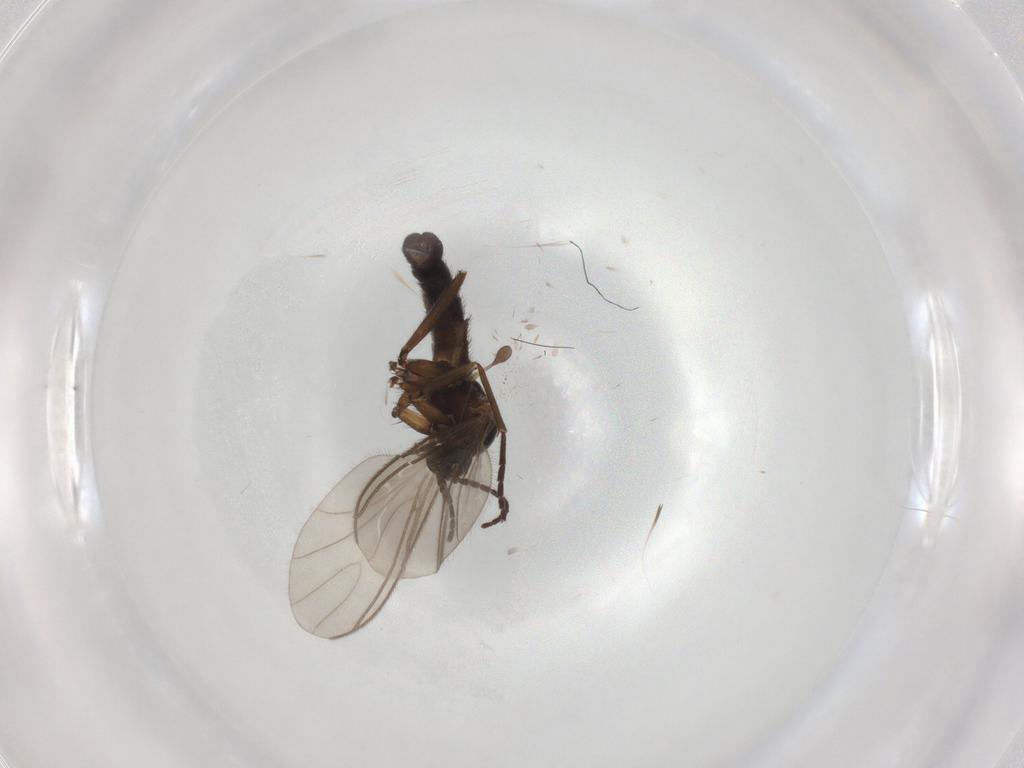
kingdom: Animalia
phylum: Arthropoda
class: Insecta
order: Diptera
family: Sciaridae
